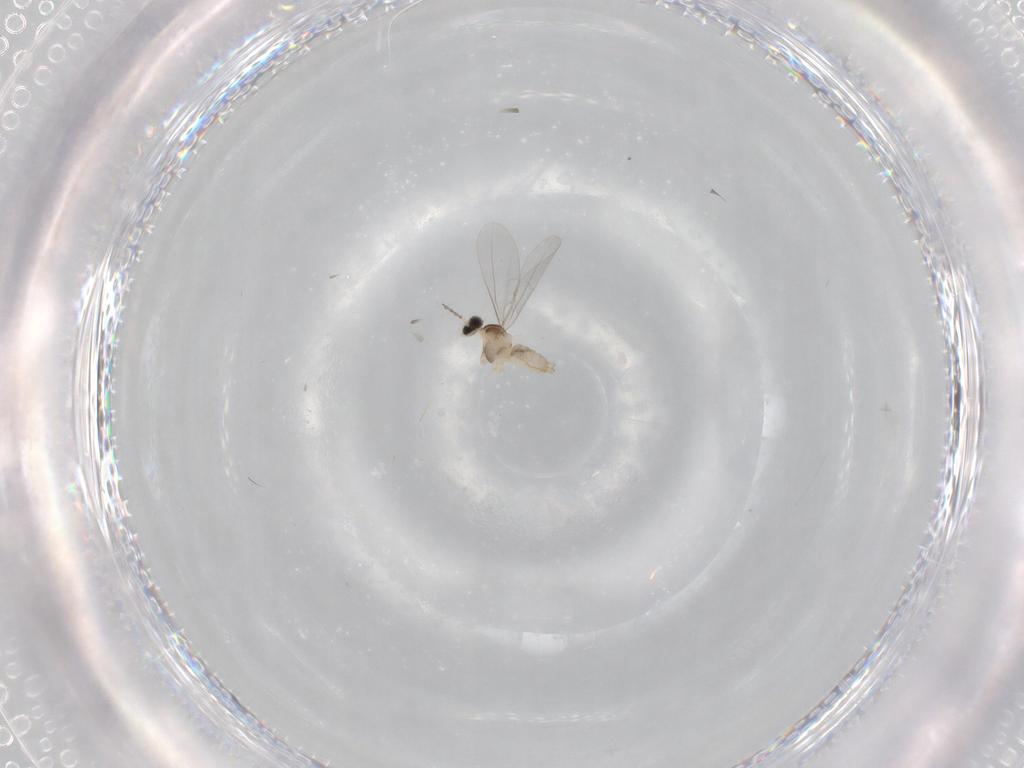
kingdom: Animalia
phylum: Arthropoda
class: Insecta
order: Diptera
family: Cecidomyiidae
